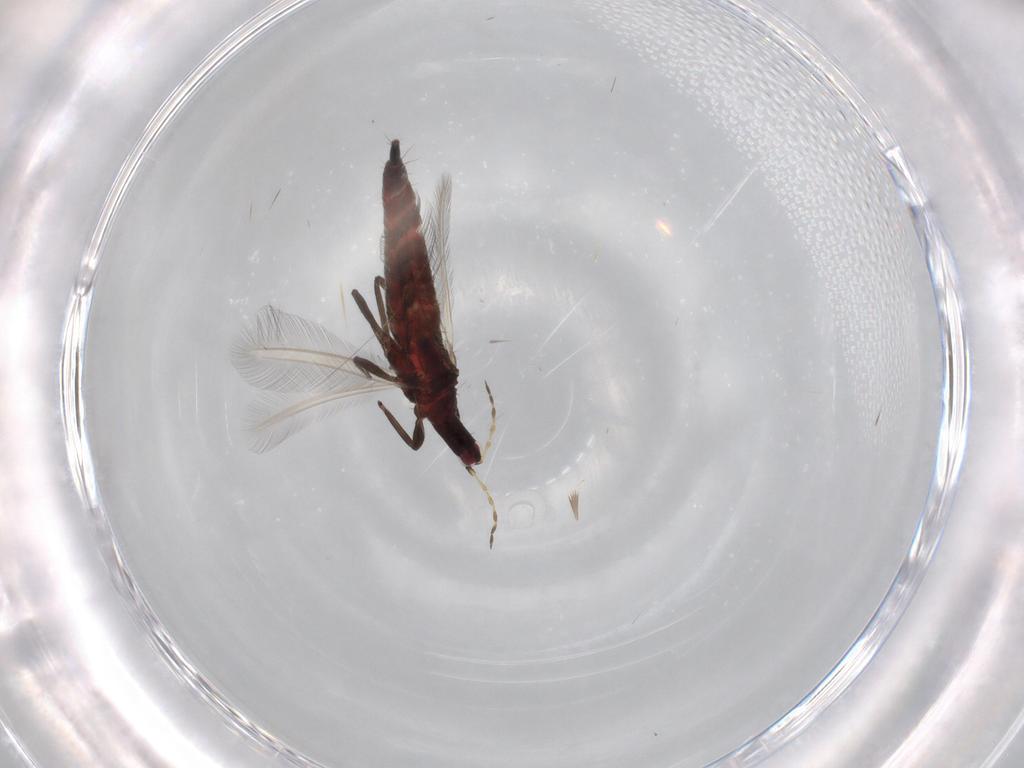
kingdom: Animalia
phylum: Arthropoda
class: Insecta
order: Thysanoptera
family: Phlaeothripidae
